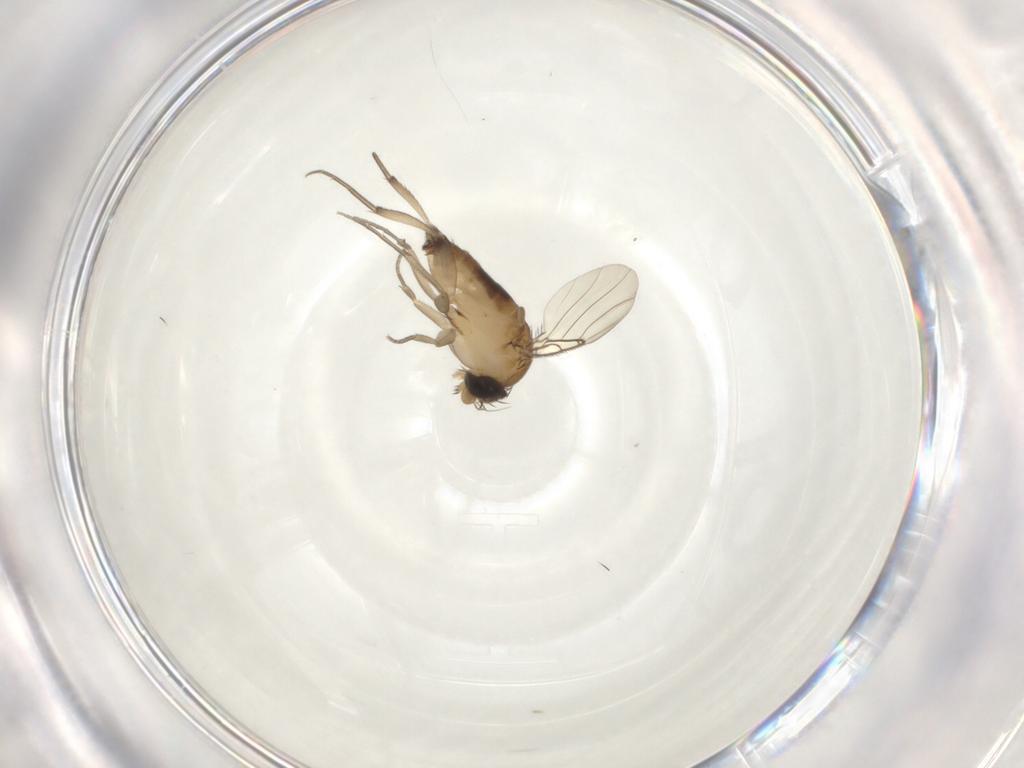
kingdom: Animalia
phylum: Arthropoda
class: Insecta
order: Diptera
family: Phoridae
